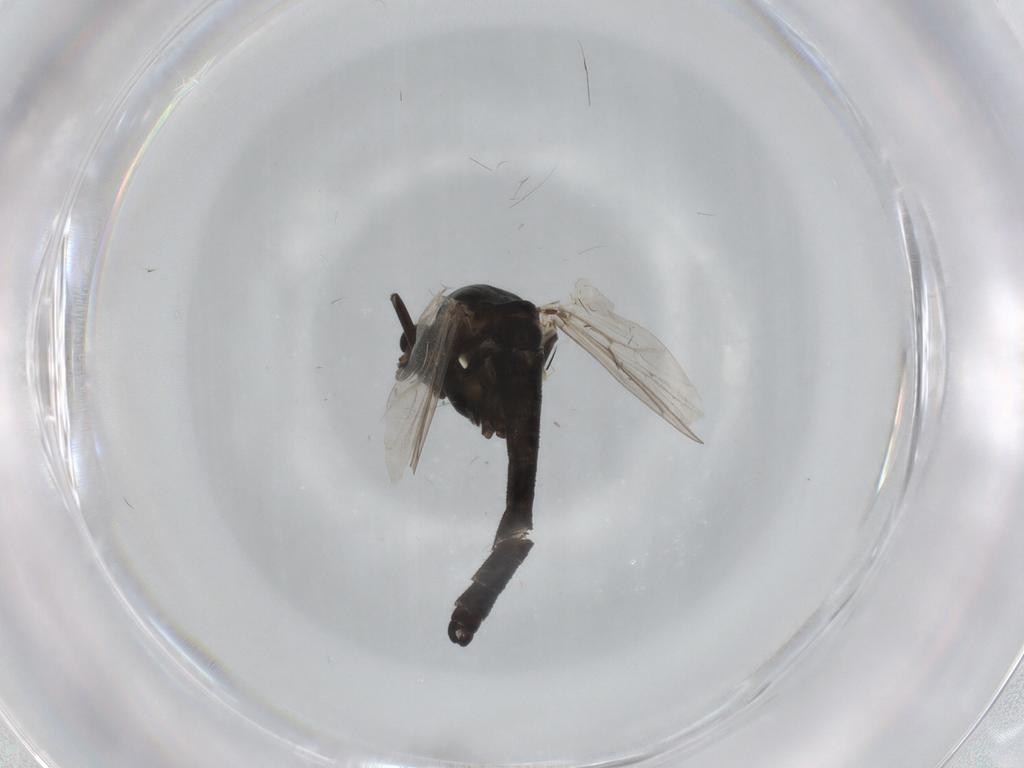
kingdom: Animalia
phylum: Arthropoda
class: Insecta
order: Diptera
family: Chironomidae
